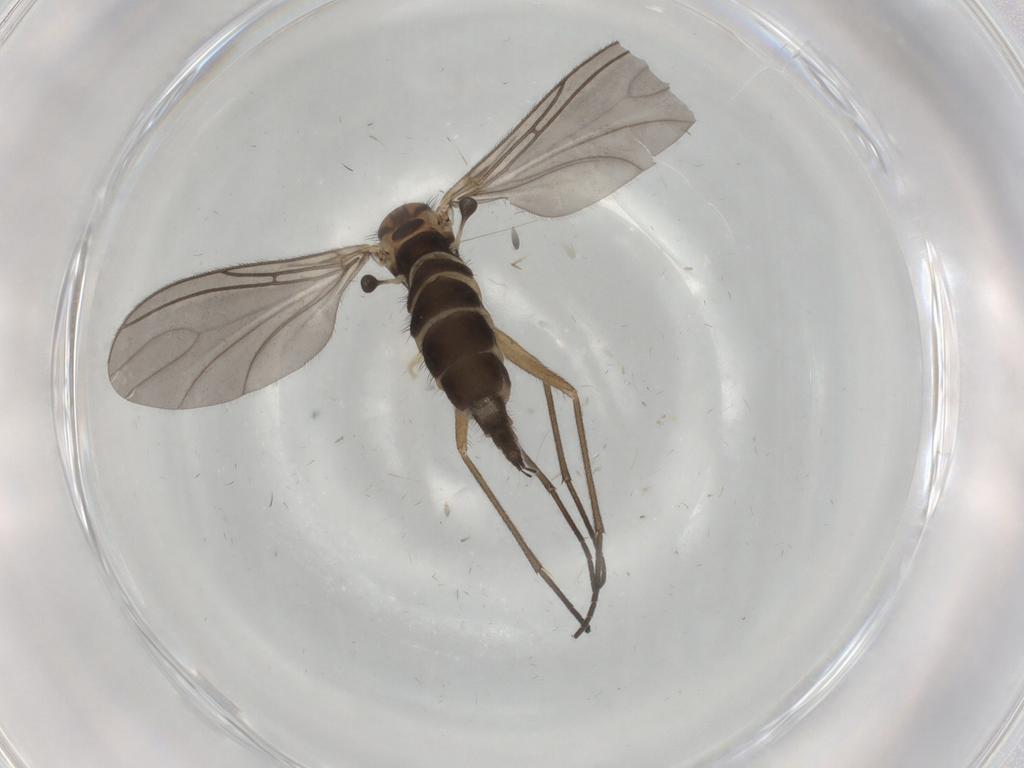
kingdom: Animalia
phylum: Arthropoda
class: Insecta
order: Diptera
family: Sciaridae
